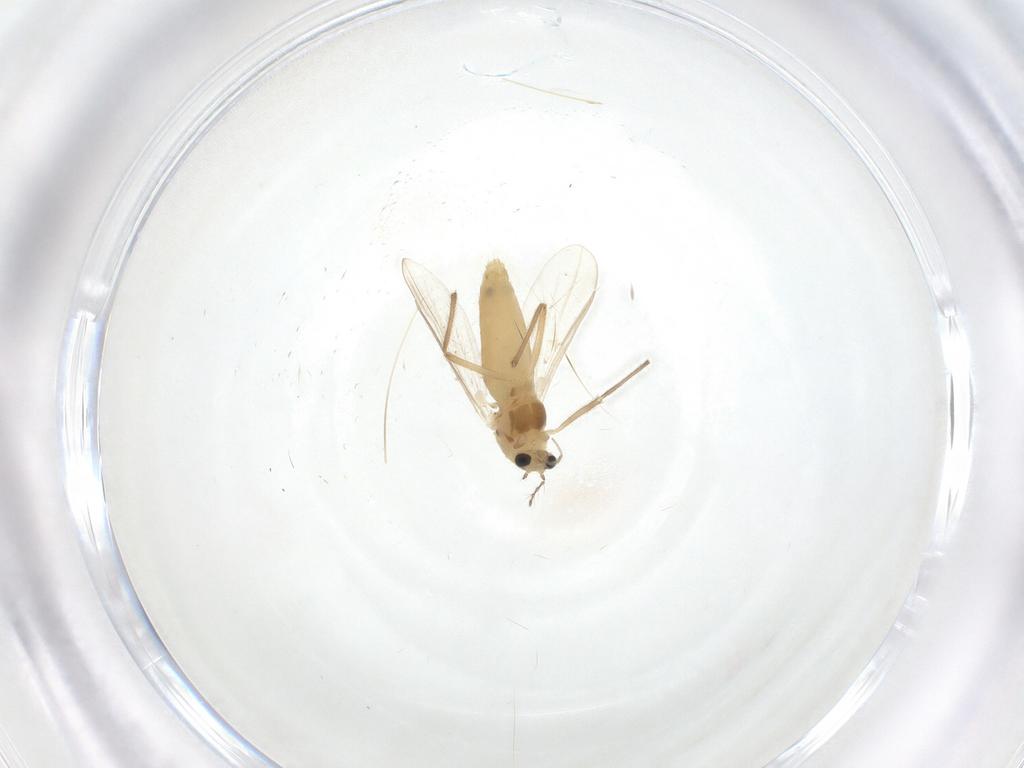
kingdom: Animalia
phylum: Arthropoda
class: Insecta
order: Diptera
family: Chironomidae
